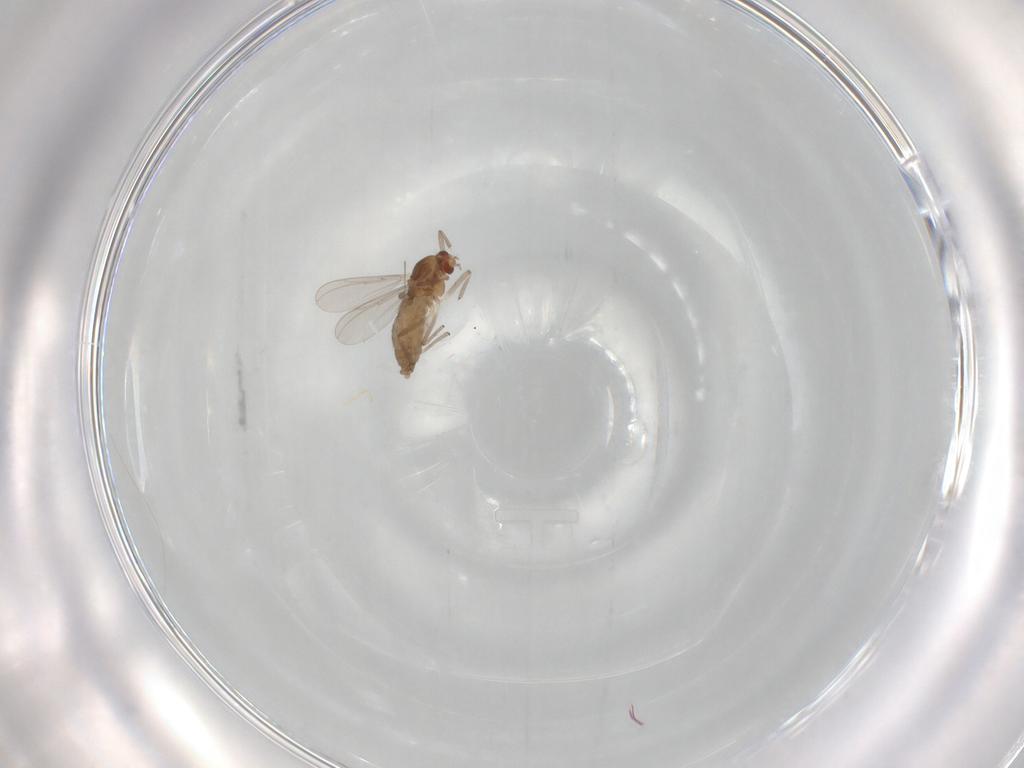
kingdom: Animalia
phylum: Arthropoda
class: Insecta
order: Diptera
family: Chironomidae
